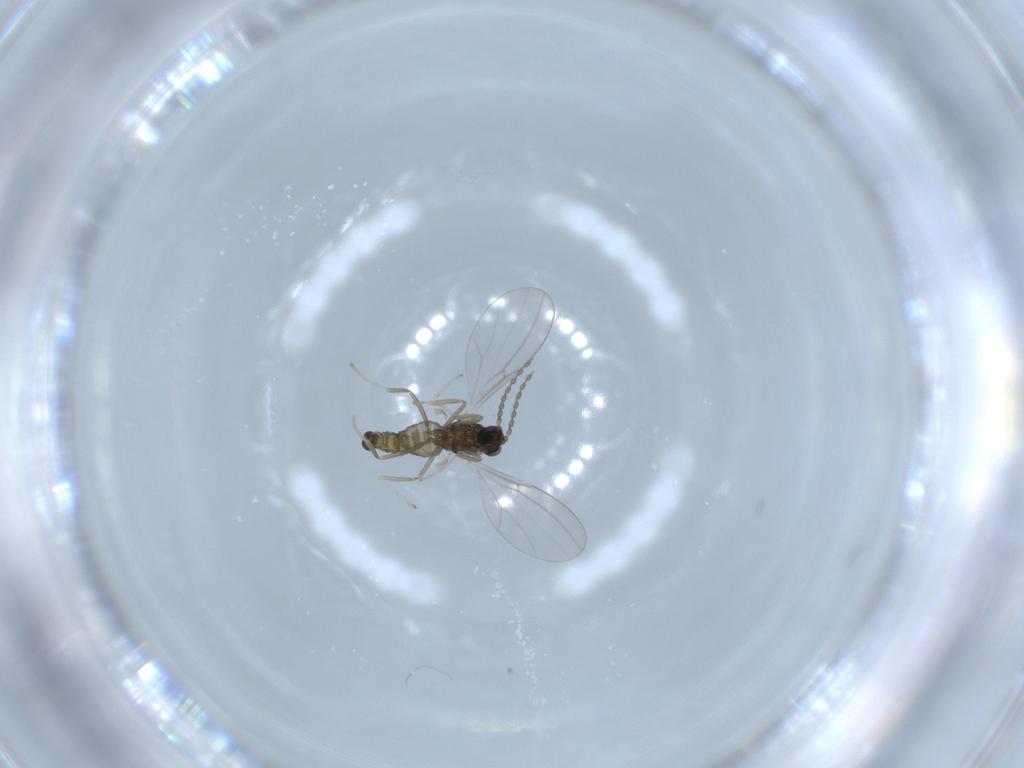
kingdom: Animalia
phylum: Arthropoda
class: Insecta
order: Diptera
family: Cecidomyiidae
